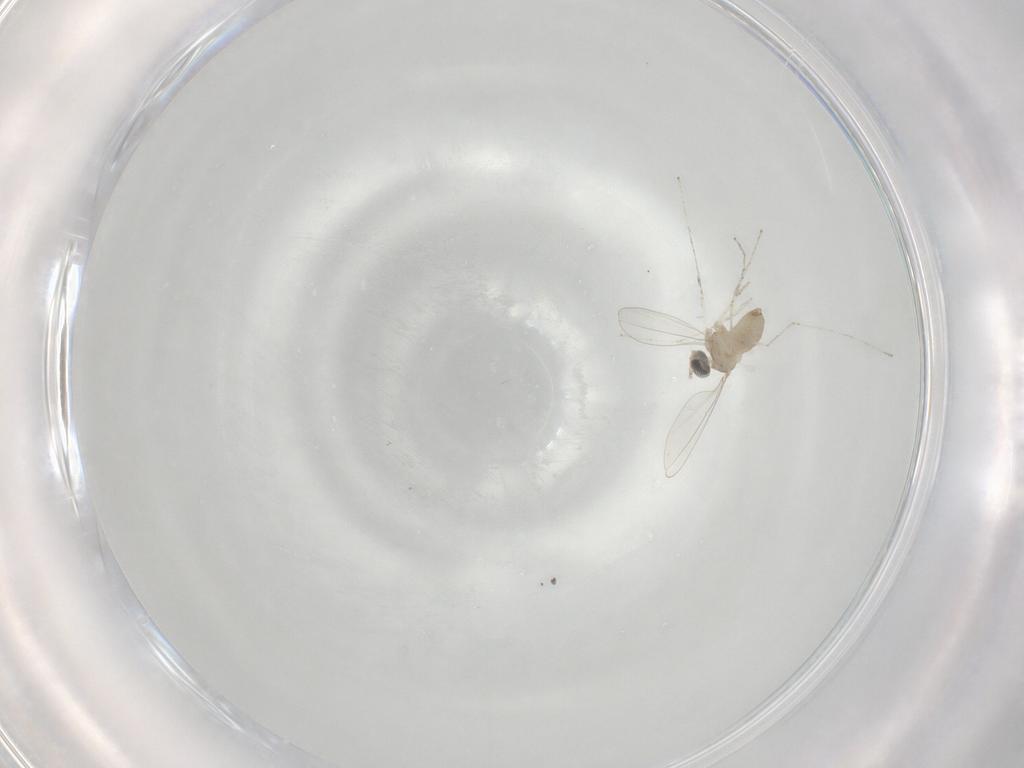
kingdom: Animalia
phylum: Arthropoda
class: Insecta
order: Diptera
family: Cecidomyiidae
